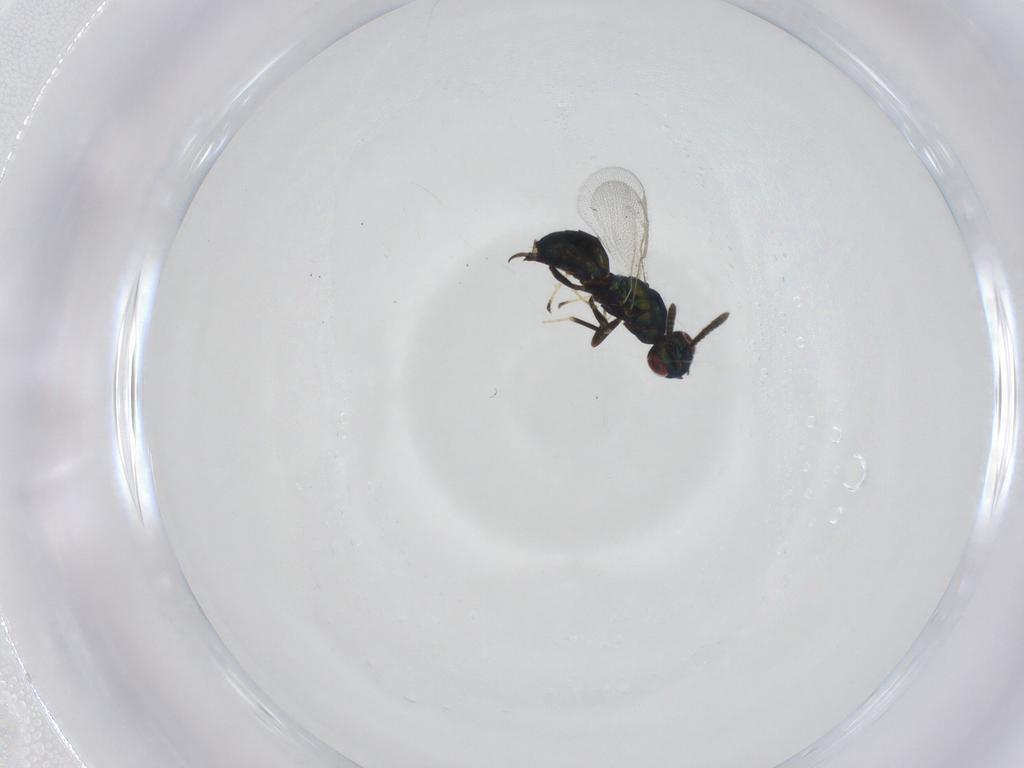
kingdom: Animalia
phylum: Arthropoda
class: Insecta
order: Hymenoptera
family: Torymidae
